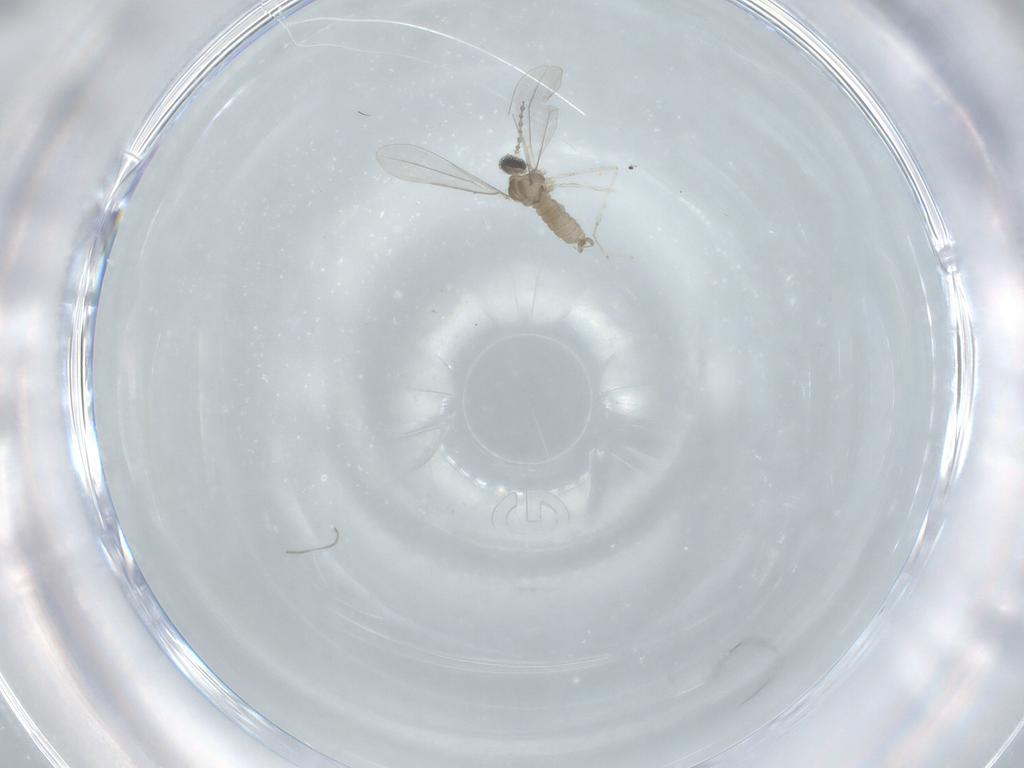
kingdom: Animalia
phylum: Arthropoda
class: Insecta
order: Diptera
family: Cecidomyiidae
